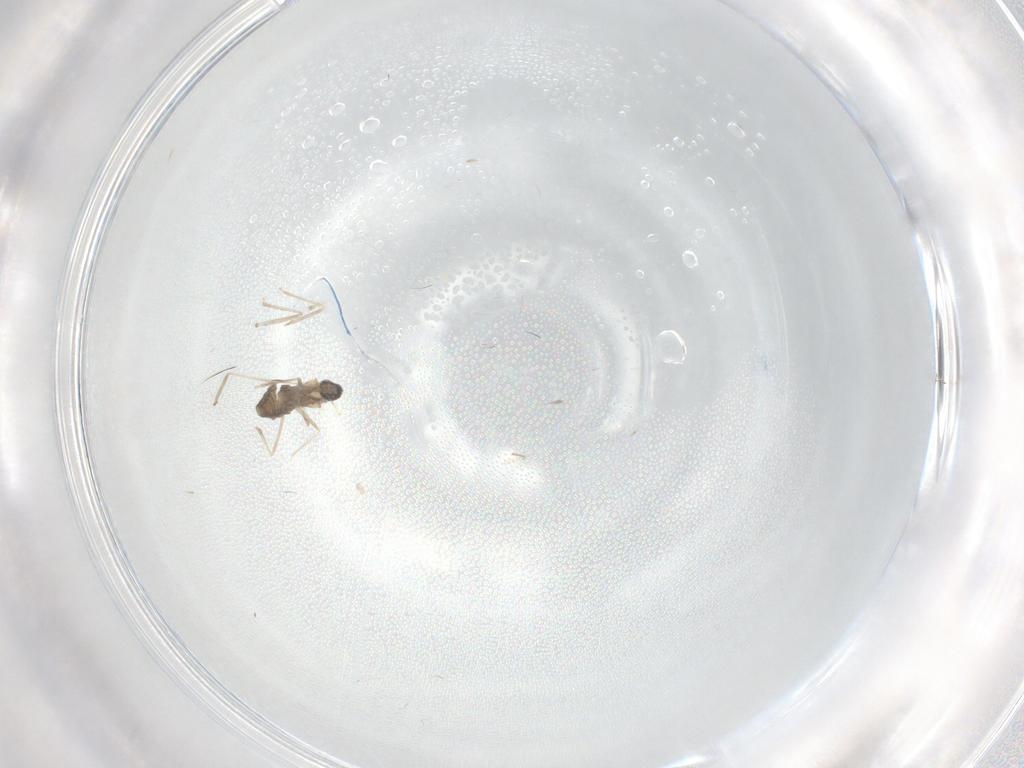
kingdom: Animalia
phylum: Arthropoda
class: Insecta
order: Diptera
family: Cecidomyiidae
